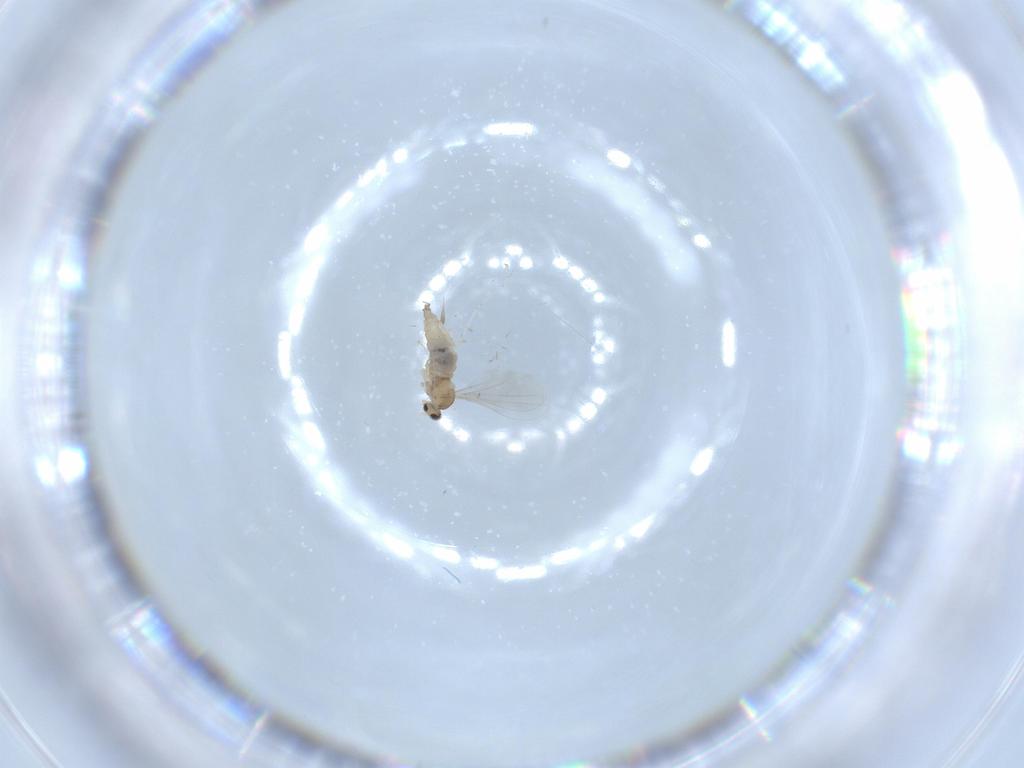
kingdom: Animalia
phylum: Arthropoda
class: Insecta
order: Diptera
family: Cecidomyiidae
